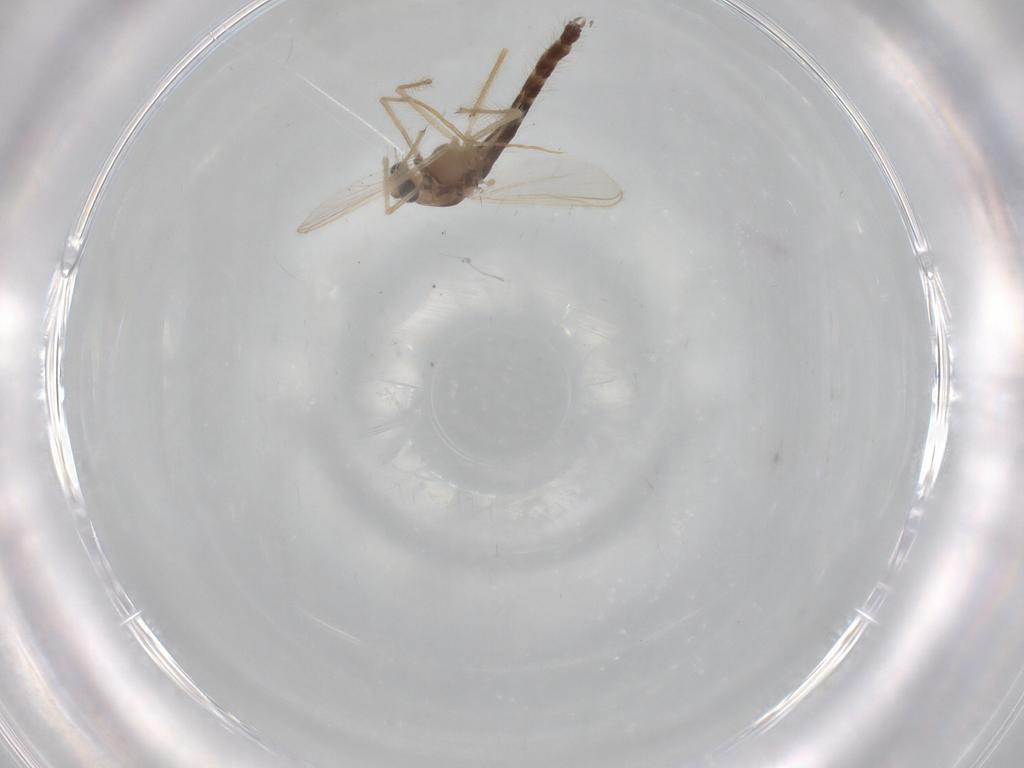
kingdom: Animalia
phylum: Arthropoda
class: Insecta
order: Diptera
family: Chironomidae
